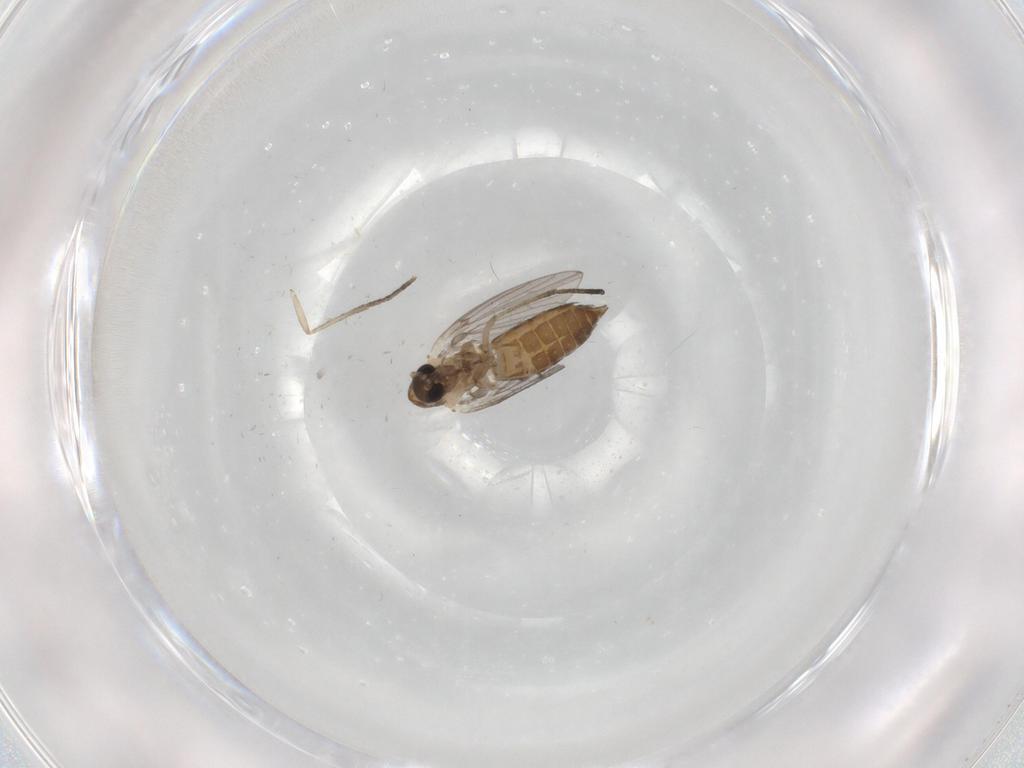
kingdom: Animalia
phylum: Arthropoda
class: Insecta
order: Diptera
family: Psychodidae
